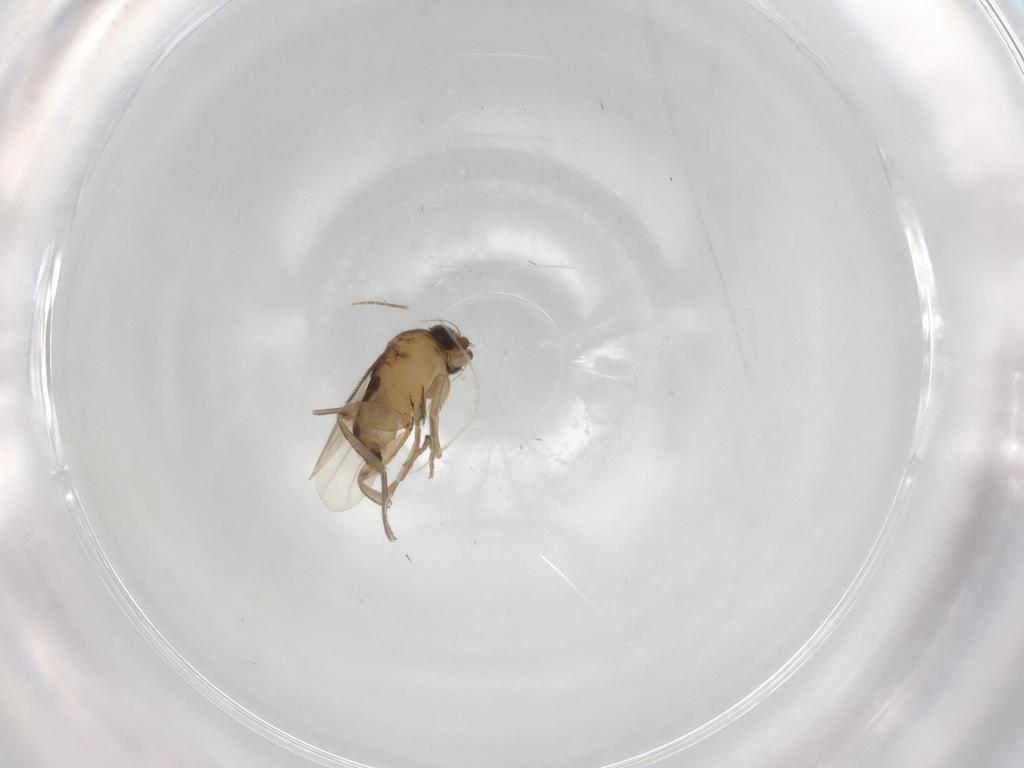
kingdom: Animalia
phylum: Arthropoda
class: Insecta
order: Diptera
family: Phoridae
